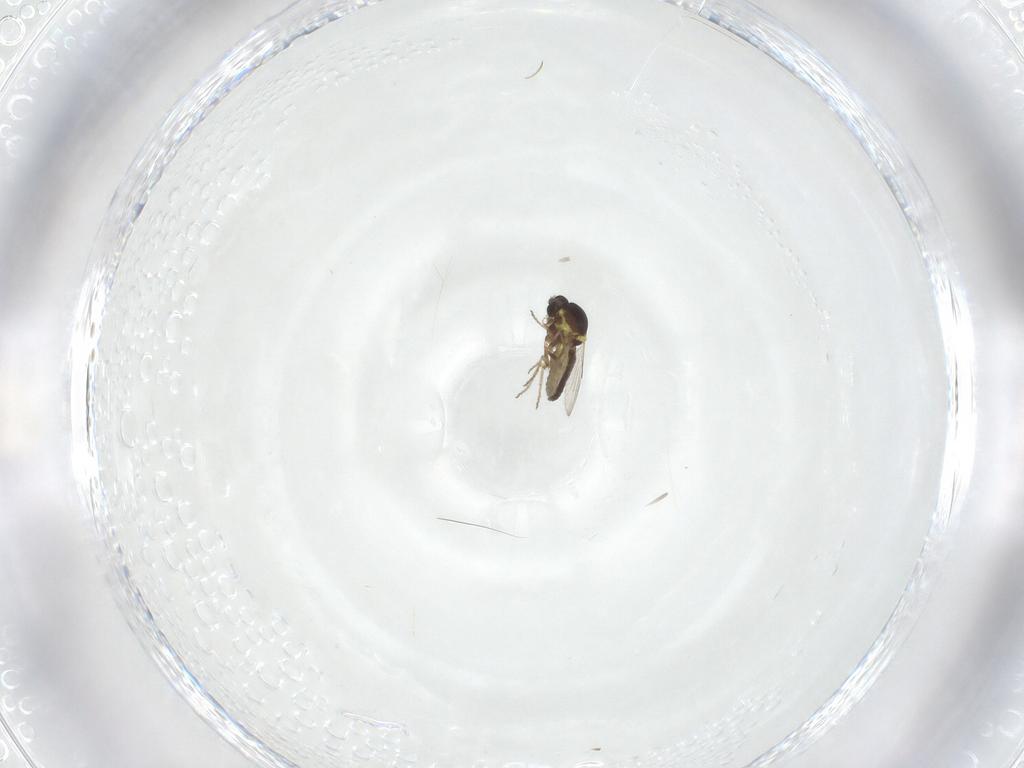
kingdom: Animalia
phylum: Arthropoda
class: Insecta
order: Diptera
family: Ceratopogonidae
